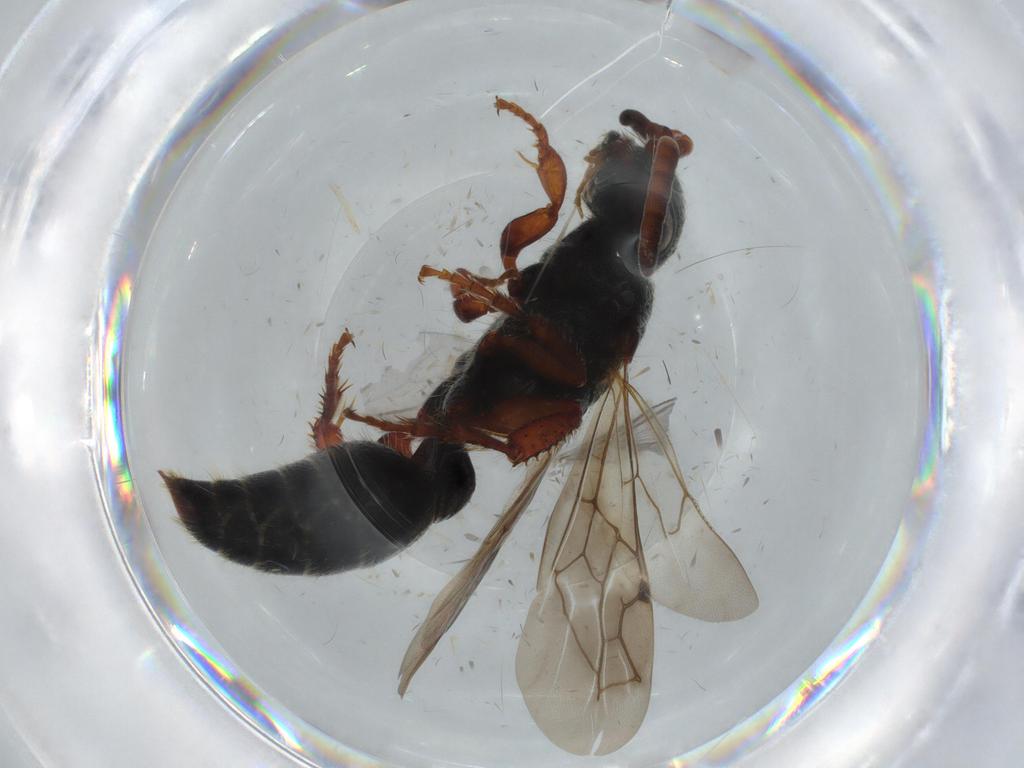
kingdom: Animalia
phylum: Arthropoda
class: Insecta
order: Hymenoptera
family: Tiphiidae
